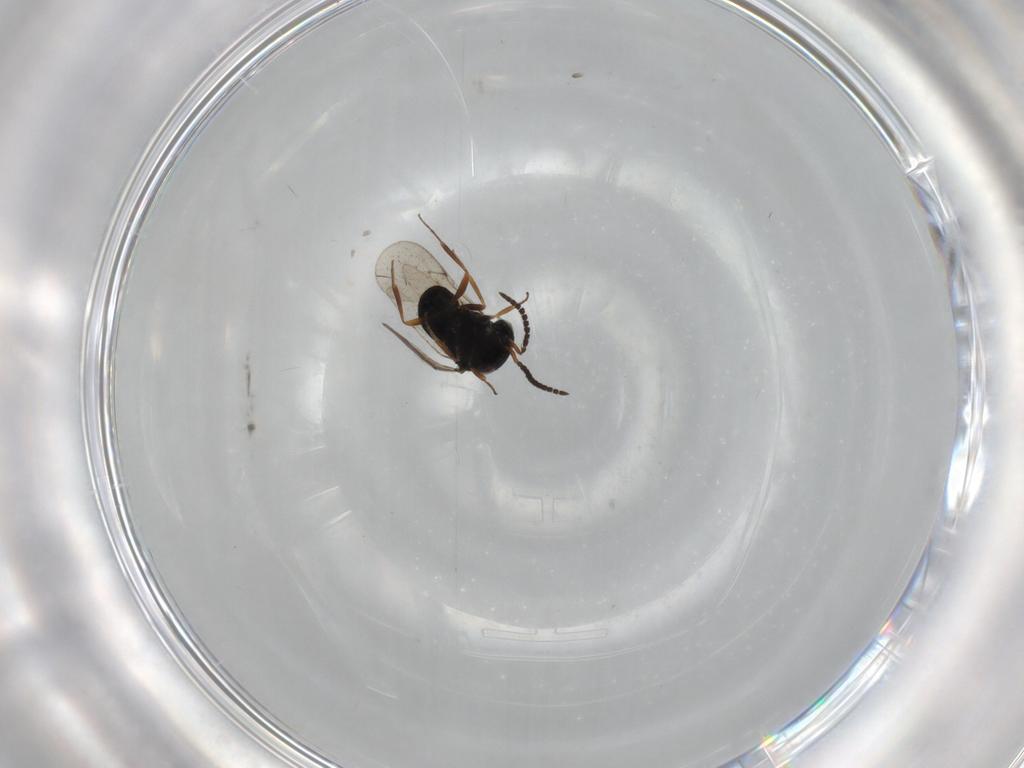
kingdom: Animalia
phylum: Arthropoda
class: Insecta
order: Hymenoptera
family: Scelionidae
